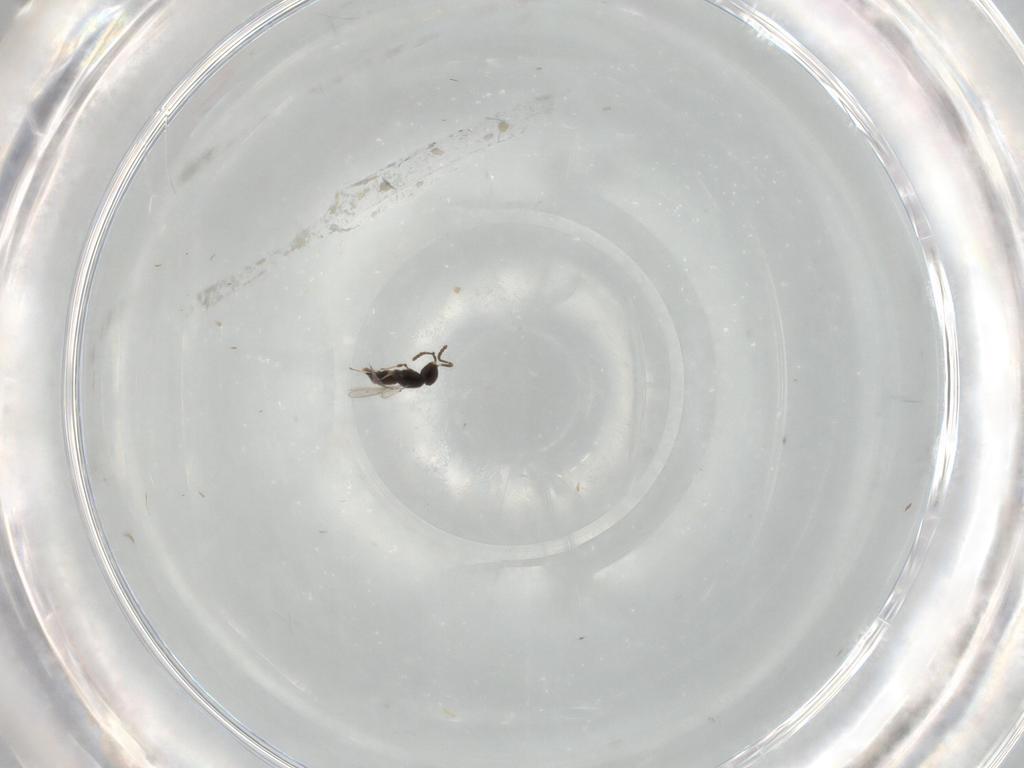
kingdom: Animalia
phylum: Arthropoda
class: Insecta
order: Hymenoptera
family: Scelionidae
